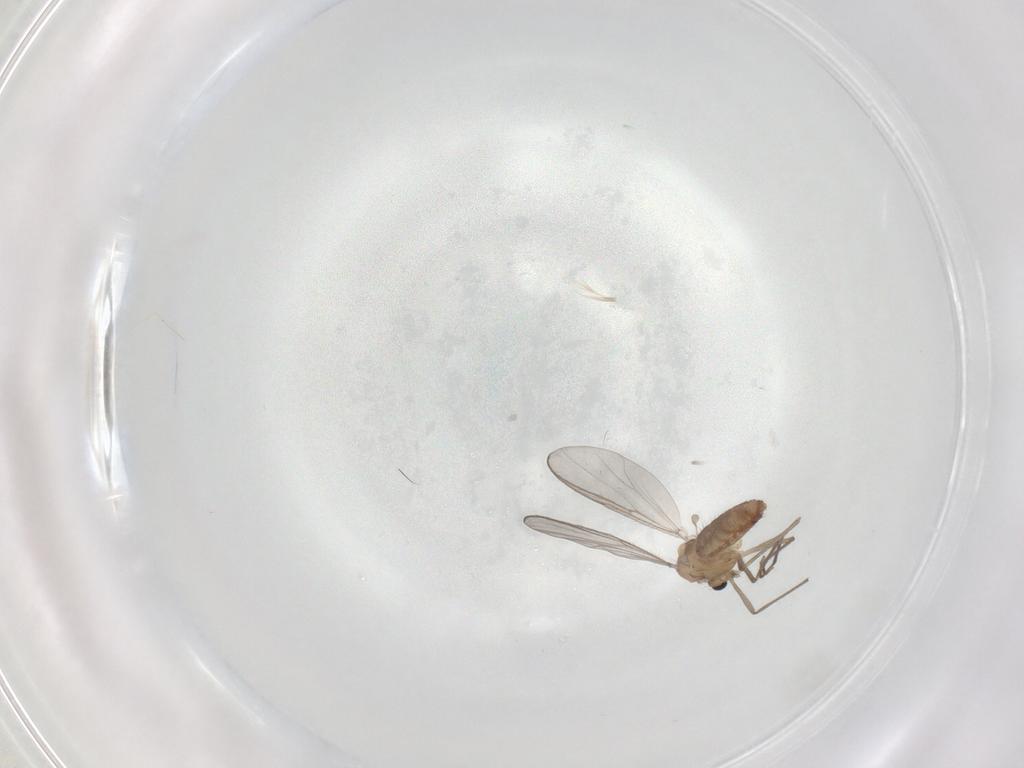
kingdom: Animalia
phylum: Arthropoda
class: Insecta
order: Diptera
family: Chironomidae
